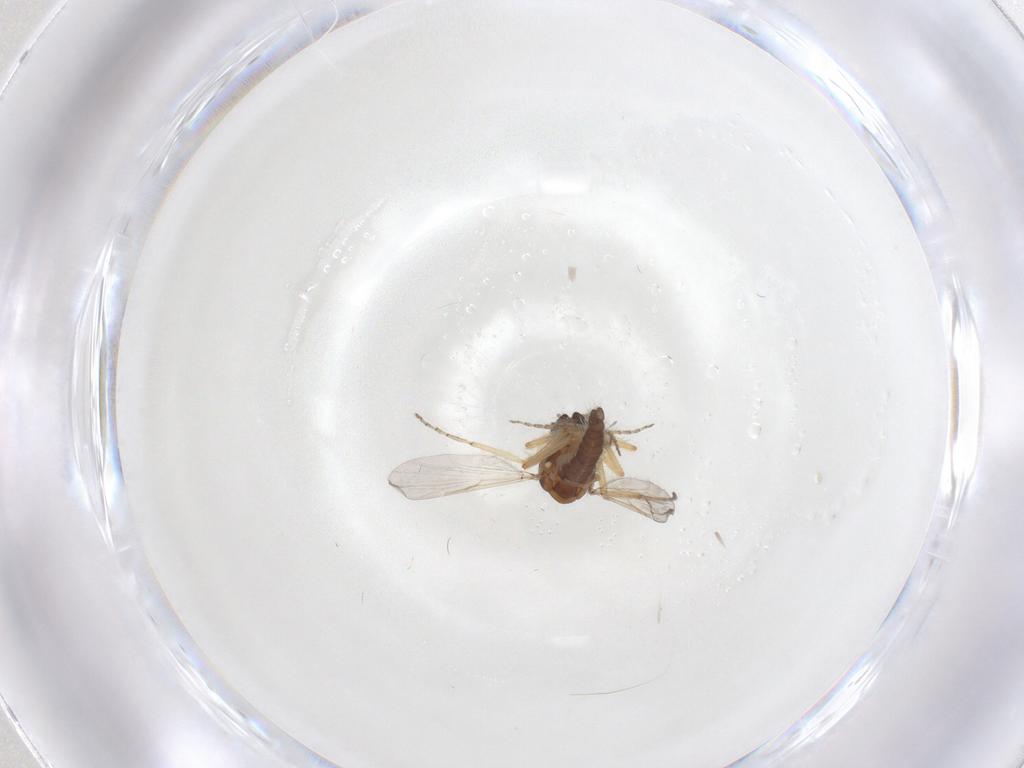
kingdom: Animalia
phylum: Arthropoda
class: Insecta
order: Diptera
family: Ceratopogonidae
